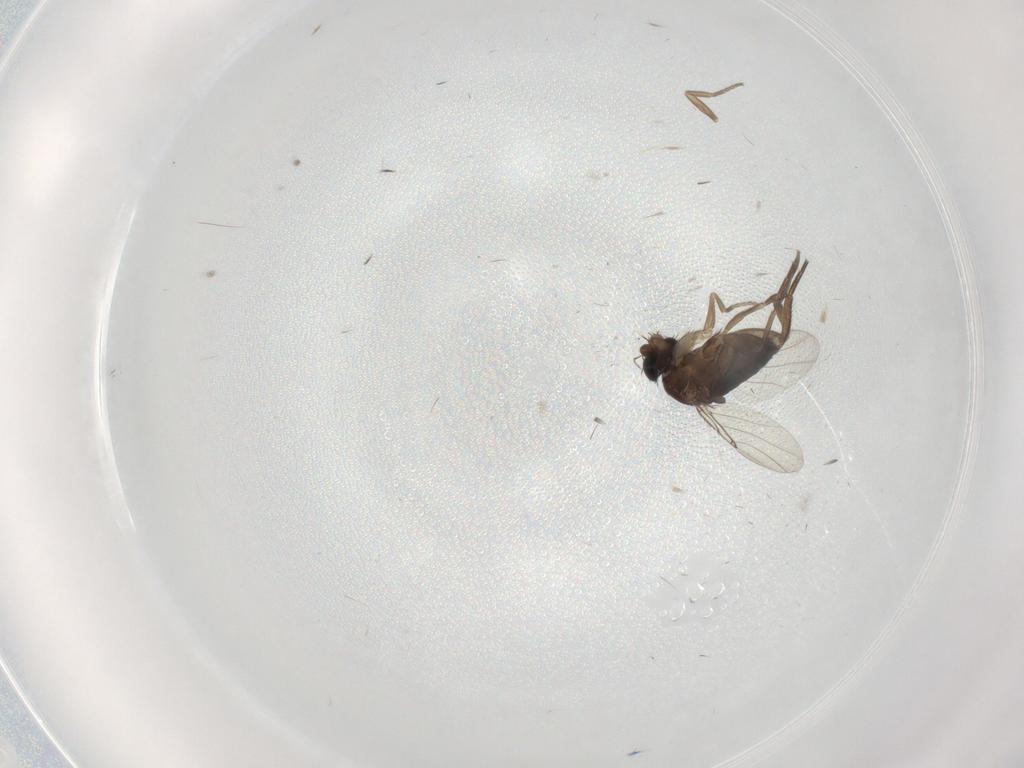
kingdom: Animalia
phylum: Arthropoda
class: Insecta
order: Diptera
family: Phoridae
